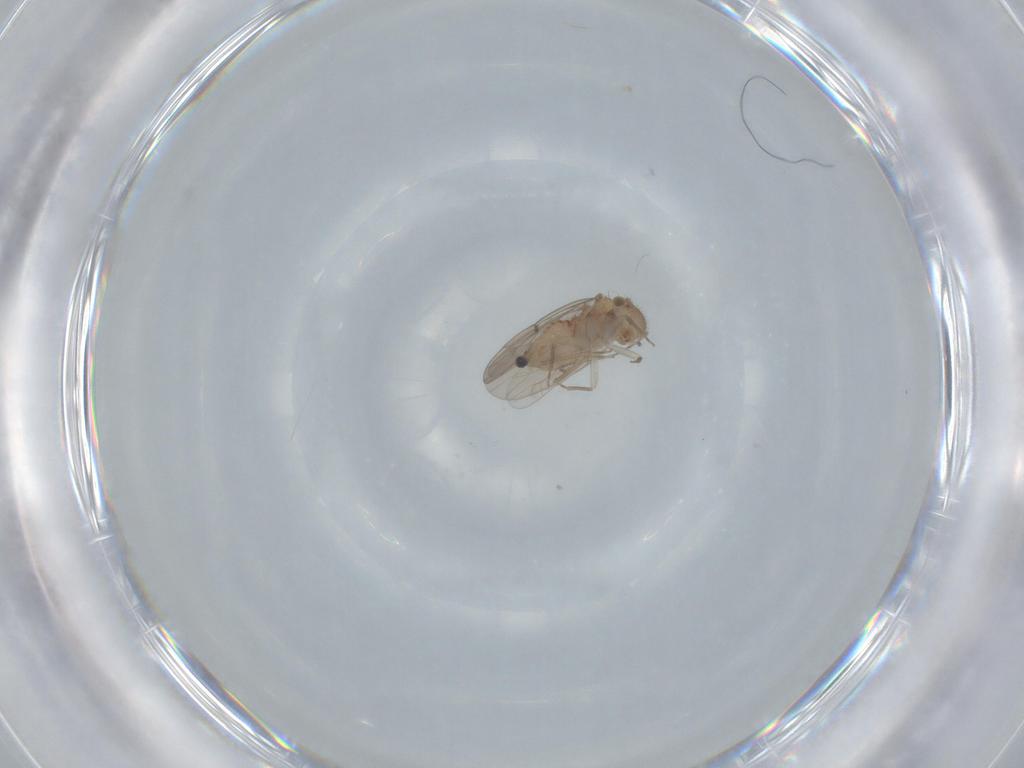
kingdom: Animalia
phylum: Arthropoda
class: Insecta
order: Psocodea
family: Ectopsocidae
